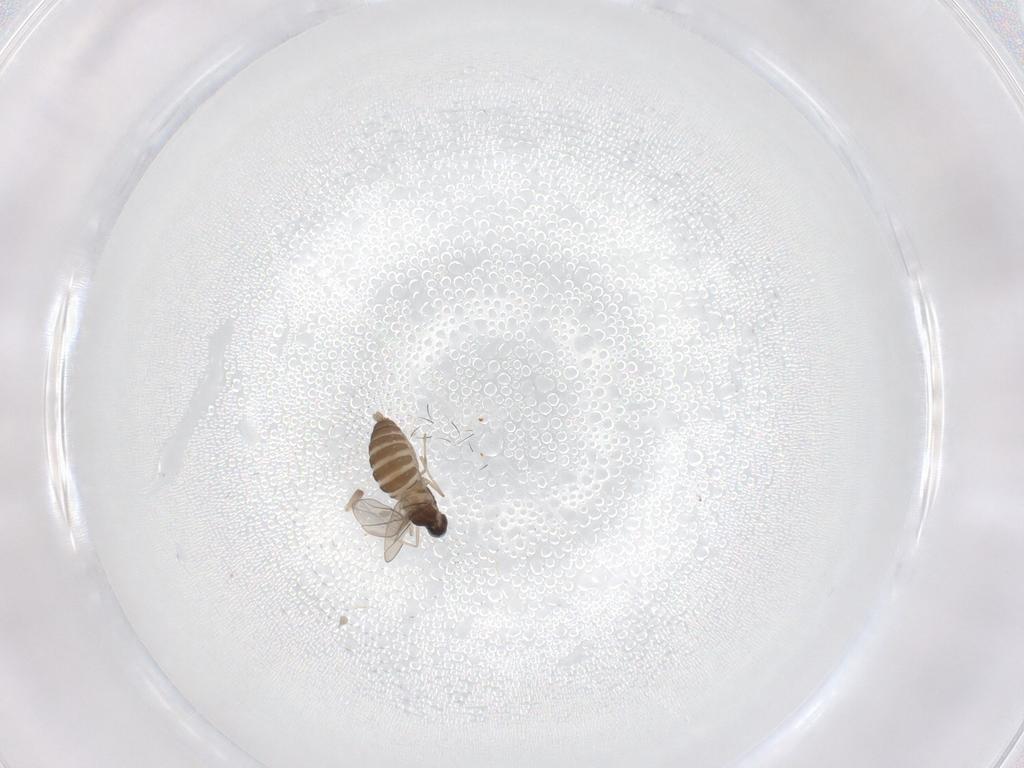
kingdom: Animalia
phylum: Arthropoda
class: Insecta
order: Diptera
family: Cecidomyiidae
